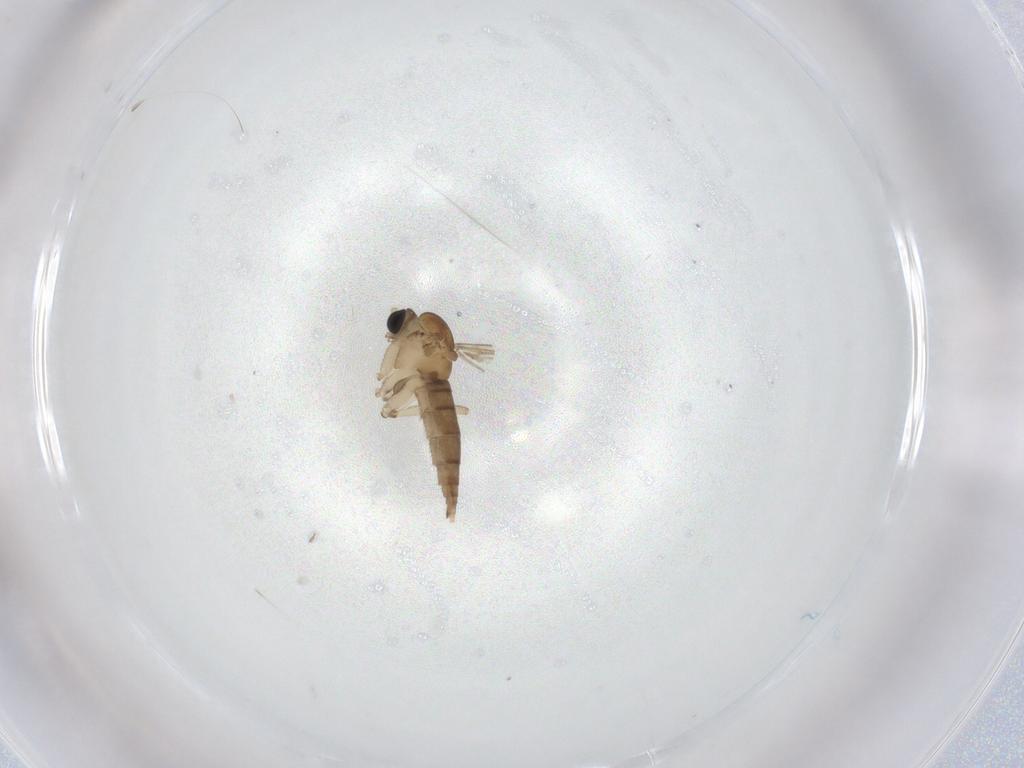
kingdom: Animalia
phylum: Arthropoda
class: Insecta
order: Diptera
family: Sciaridae
